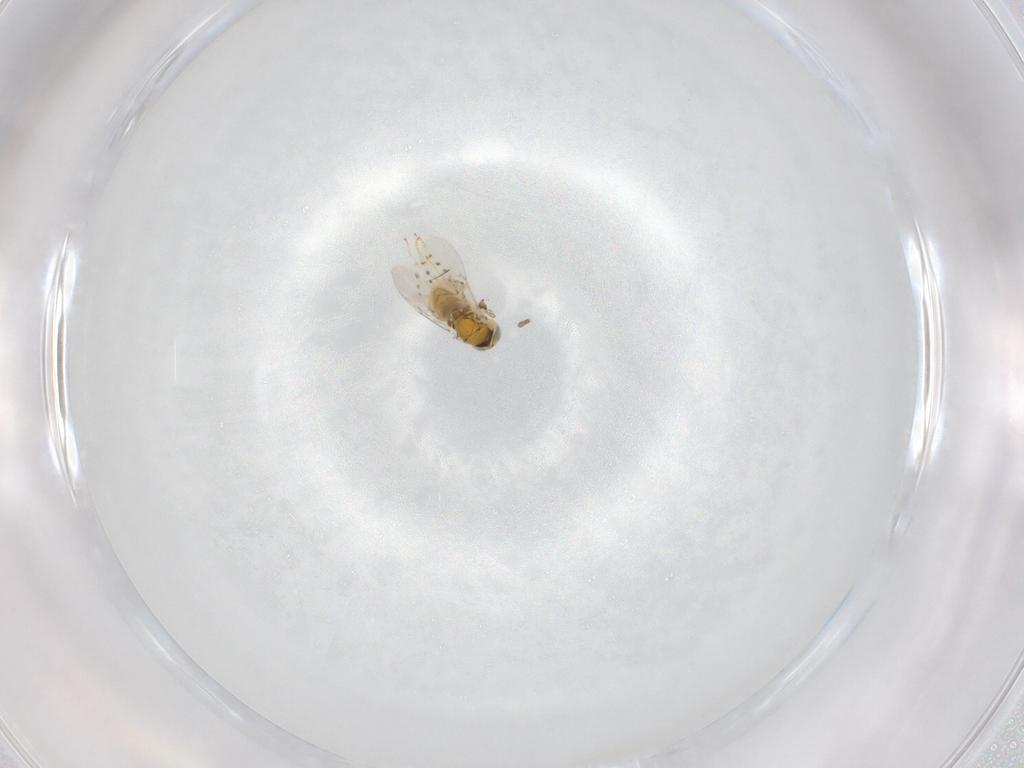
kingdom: Animalia
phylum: Arthropoda
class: Insecta
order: Hymenoptera
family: Encyrtidae
